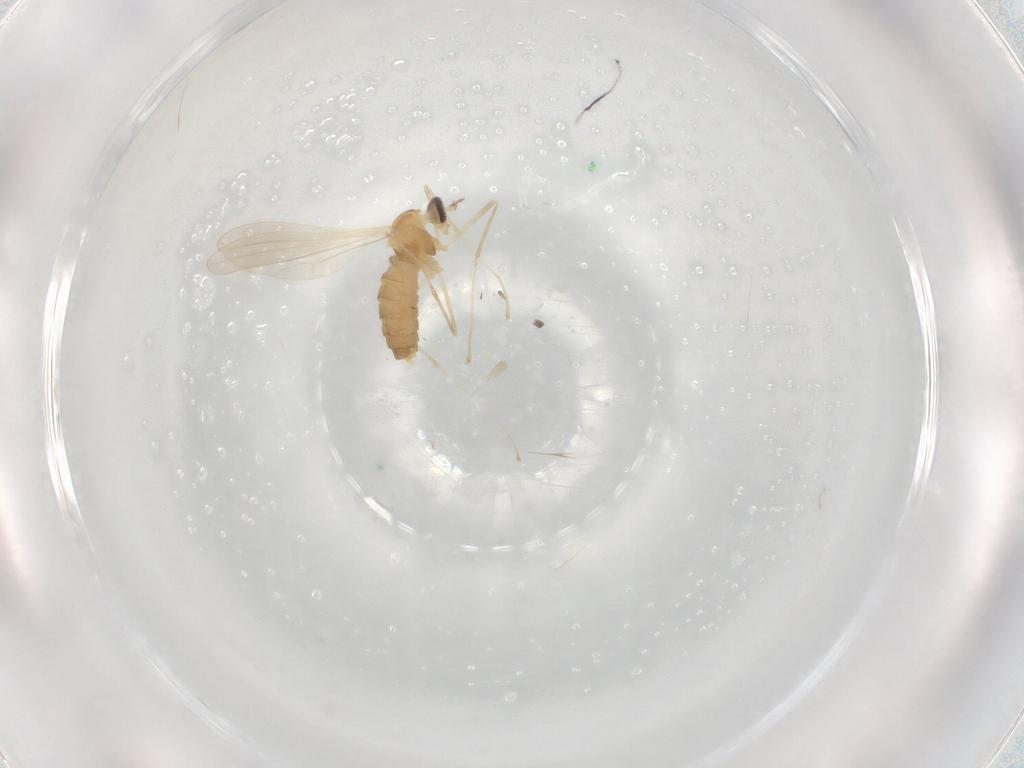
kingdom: Animalia
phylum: Arthropoda
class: Insecta
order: Diptera
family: Cecidomyiidae
